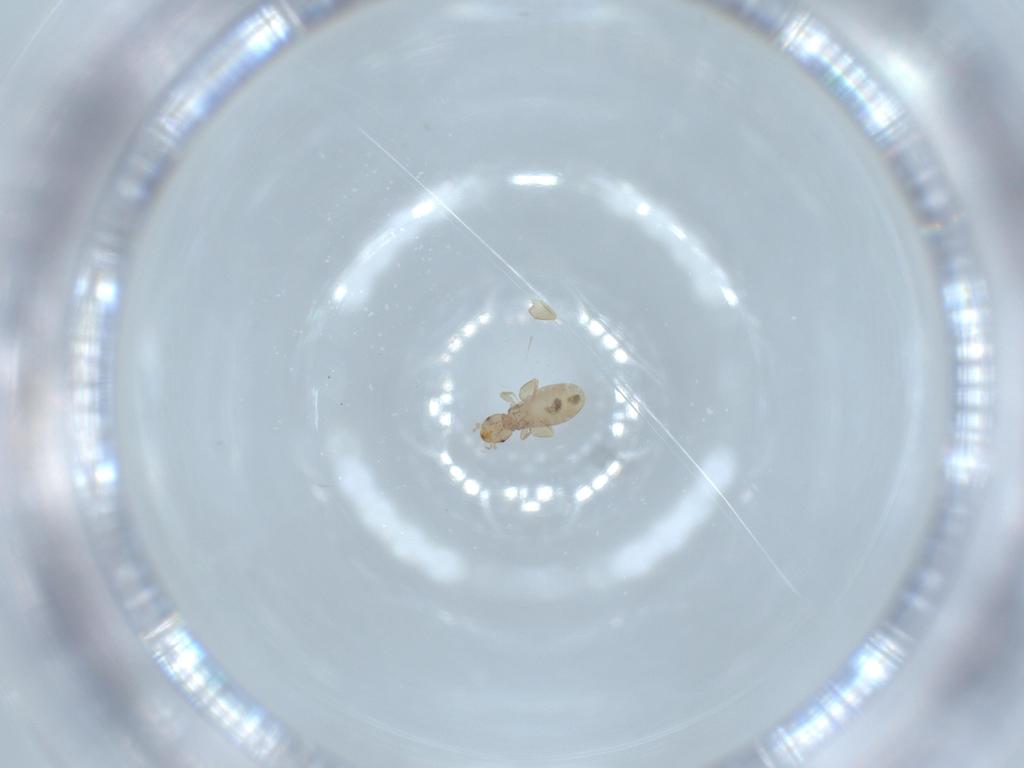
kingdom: Animalia
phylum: Arthropoda
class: Insecta
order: Psocodea
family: Liposcelididae
